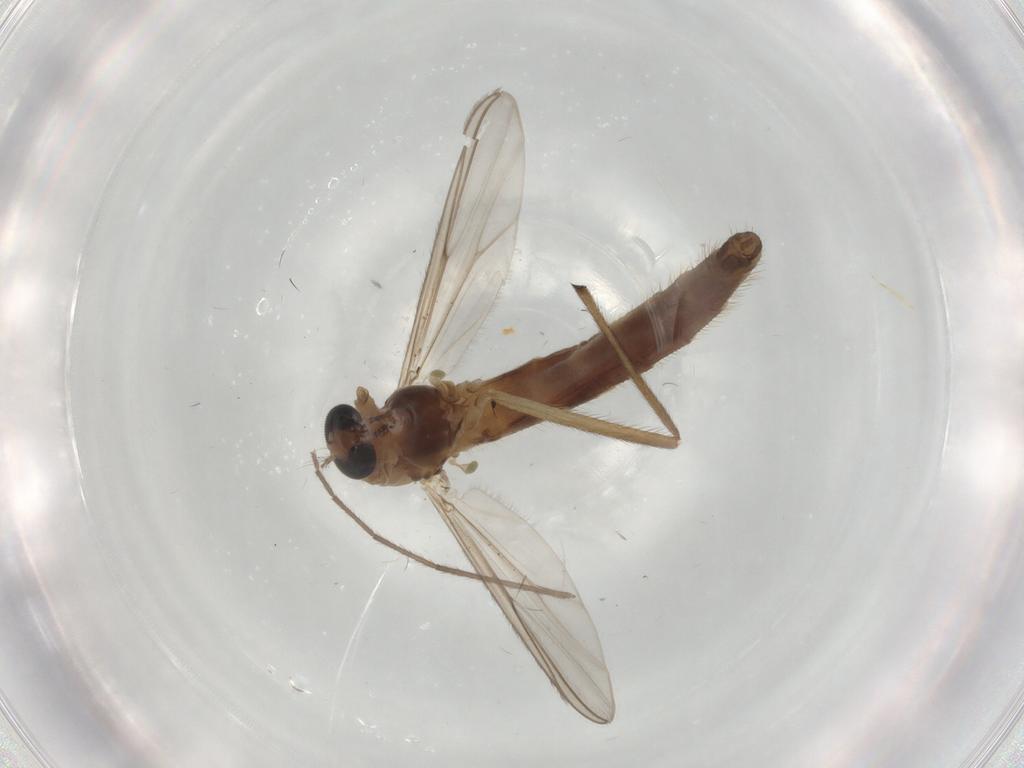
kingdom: Animalia
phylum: Arthropoda
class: Insecta
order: Diptera
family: Chironomidae
